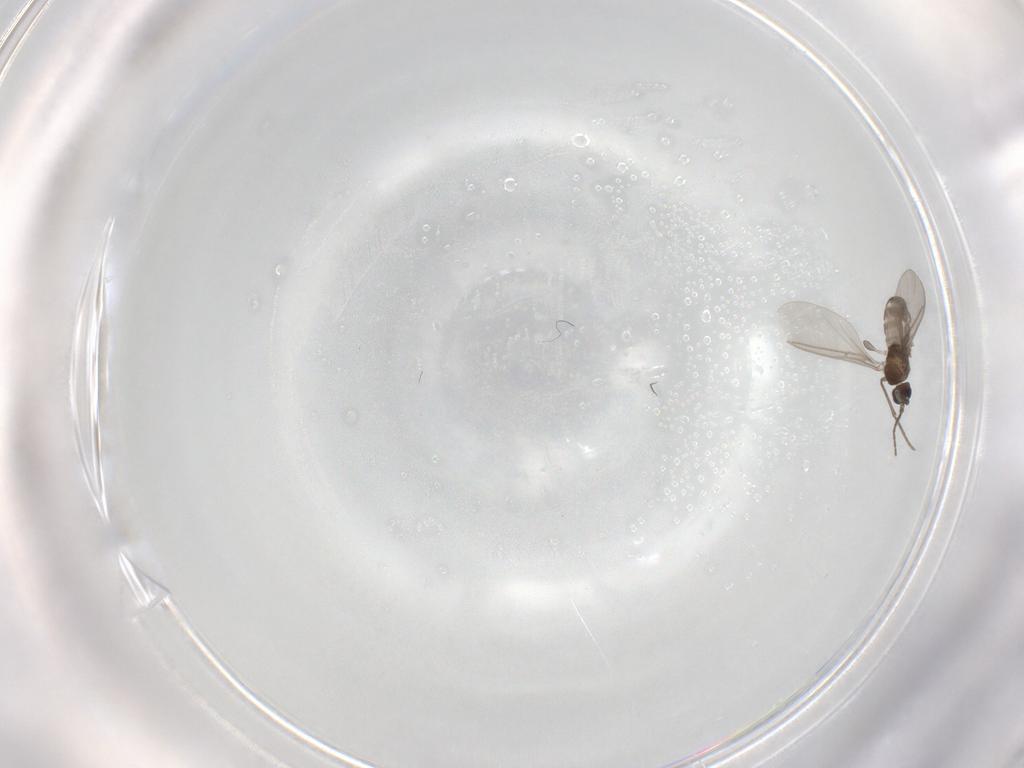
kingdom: Animalia
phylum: Arthropoda
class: Insecta
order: Diptera
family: Sciaridae
